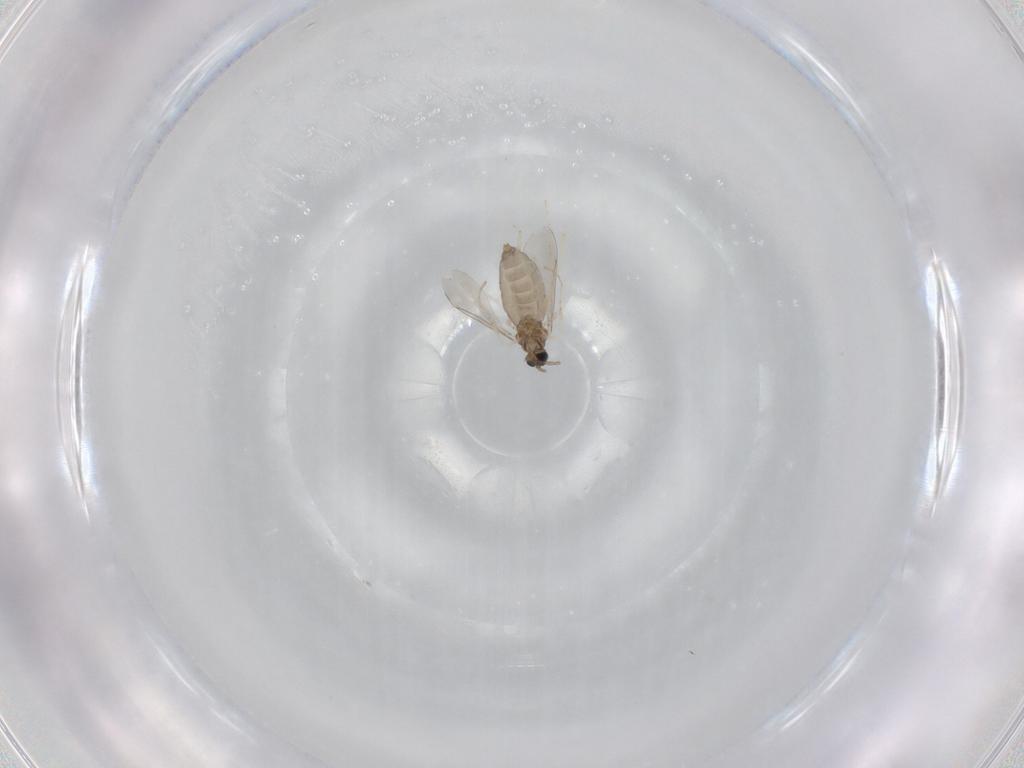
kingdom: Animalia
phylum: Arthropoda
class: Insecta
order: Diptera
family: Cecidomyiidae
